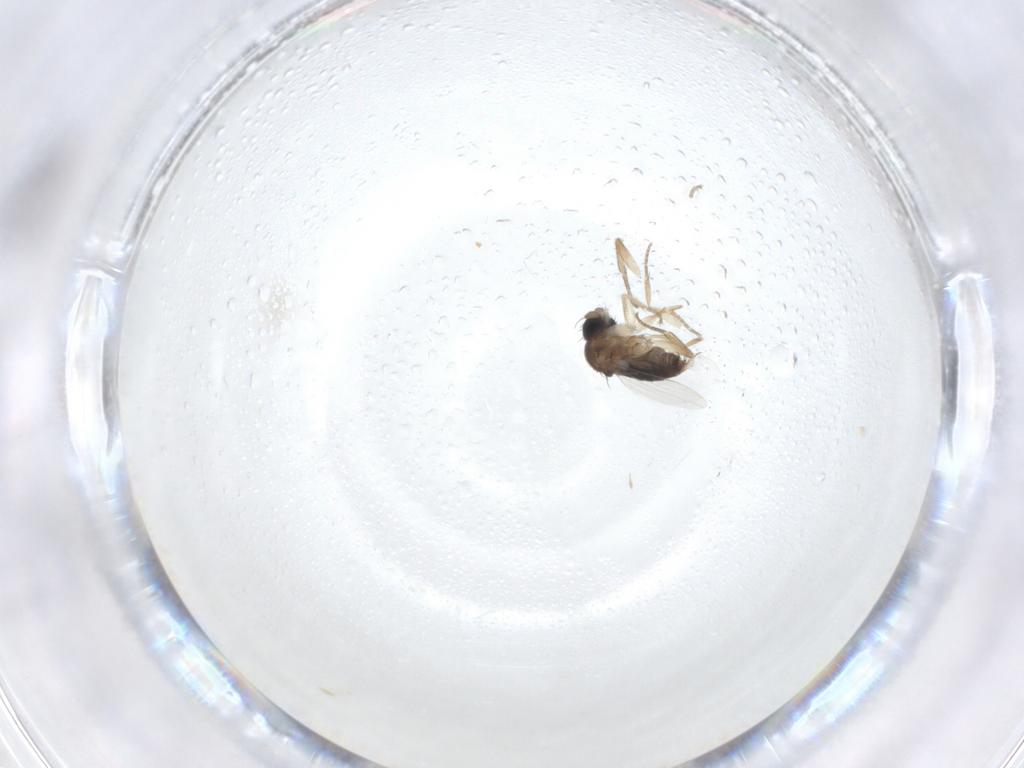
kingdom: Animalia
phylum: Arthropoda
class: Insecta
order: Diptera
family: Phoridae
